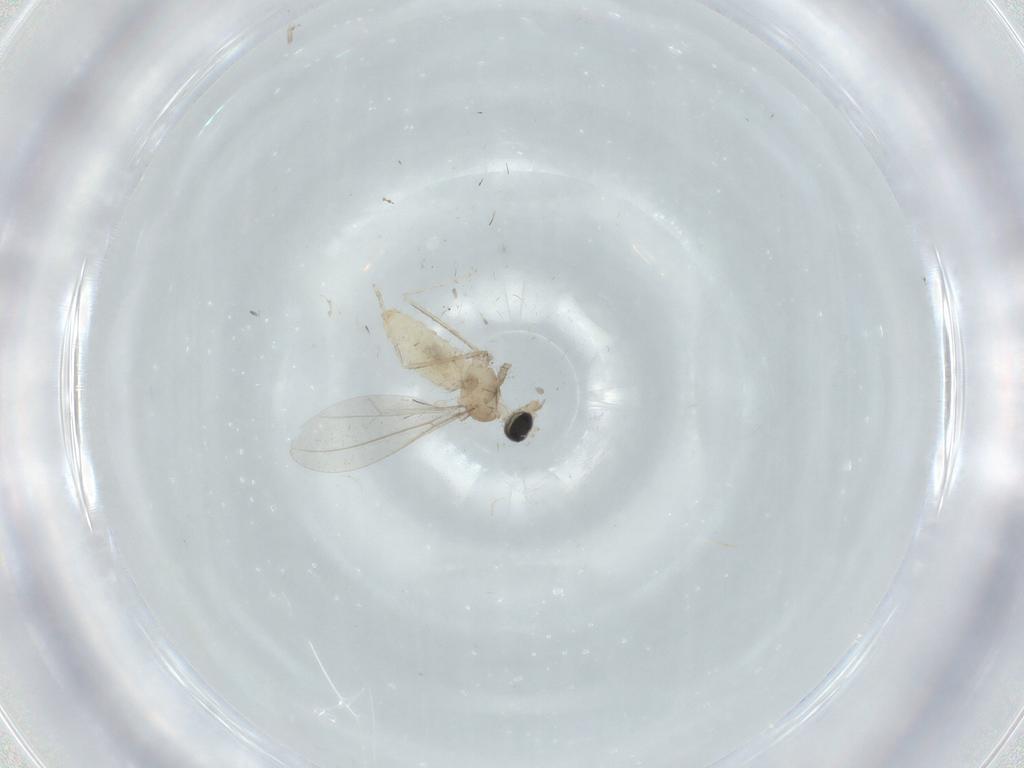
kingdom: Animalia
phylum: Arthropoda
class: Insecta
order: Diptera
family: Cecidomyiidae
